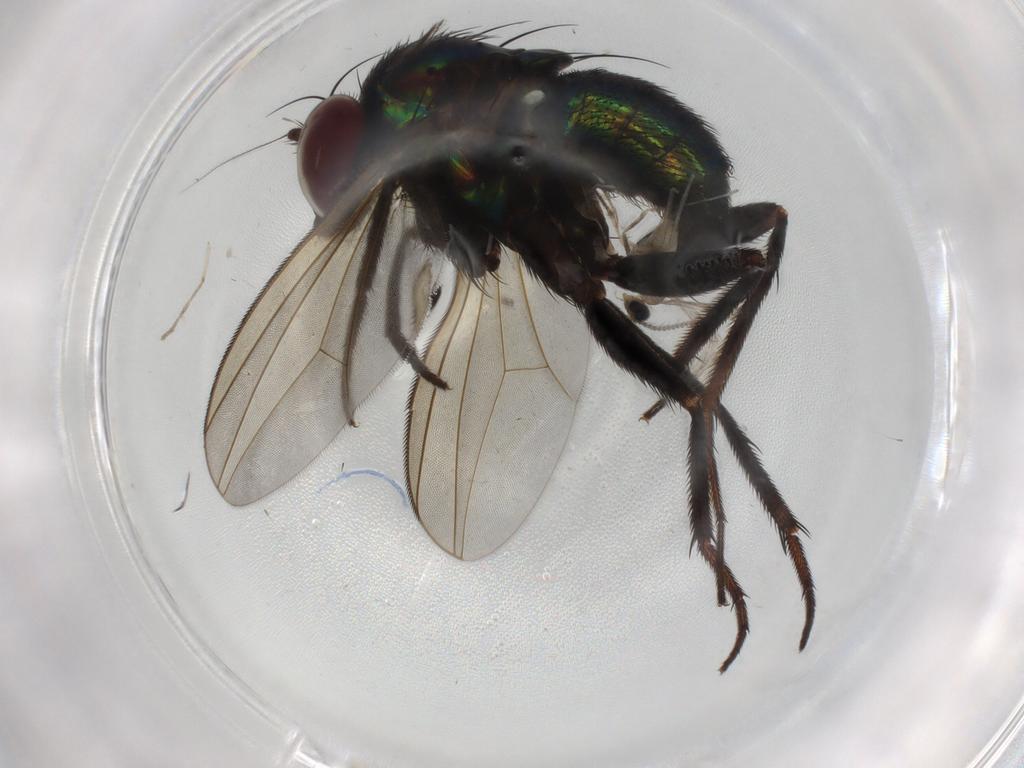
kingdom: Animalia
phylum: Arthropoda
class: Insecta
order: Diptera
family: Dolichopodidae
